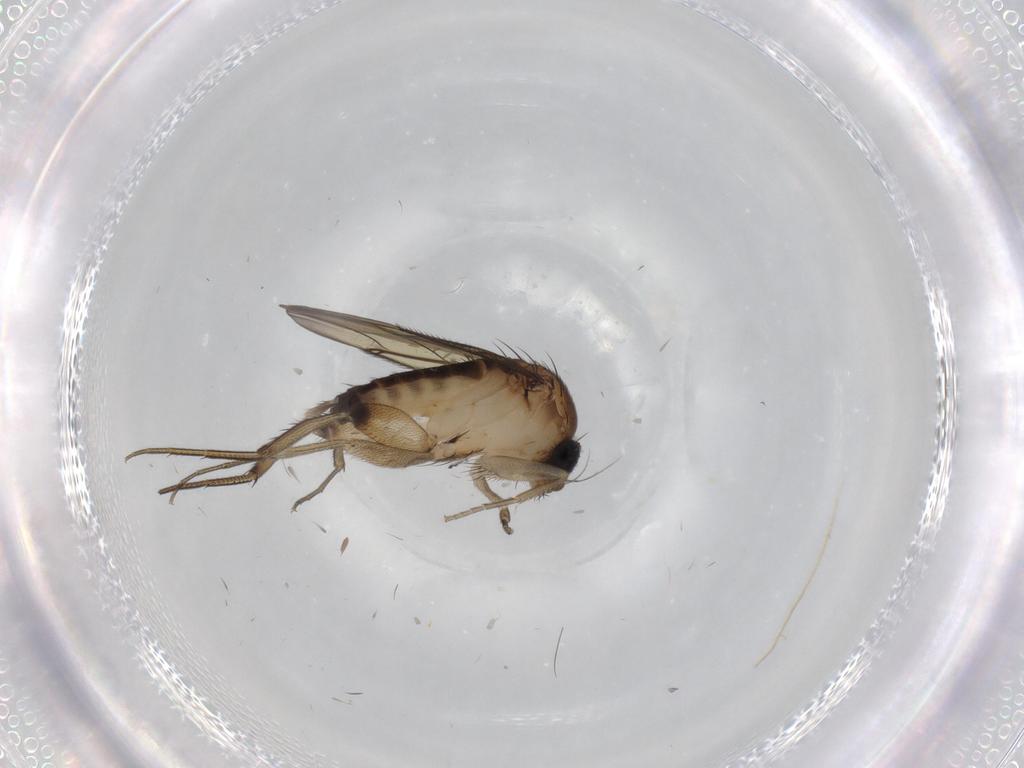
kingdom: Animalia
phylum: Arthropoda
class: Insecta
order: Diptera
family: Phoridae
